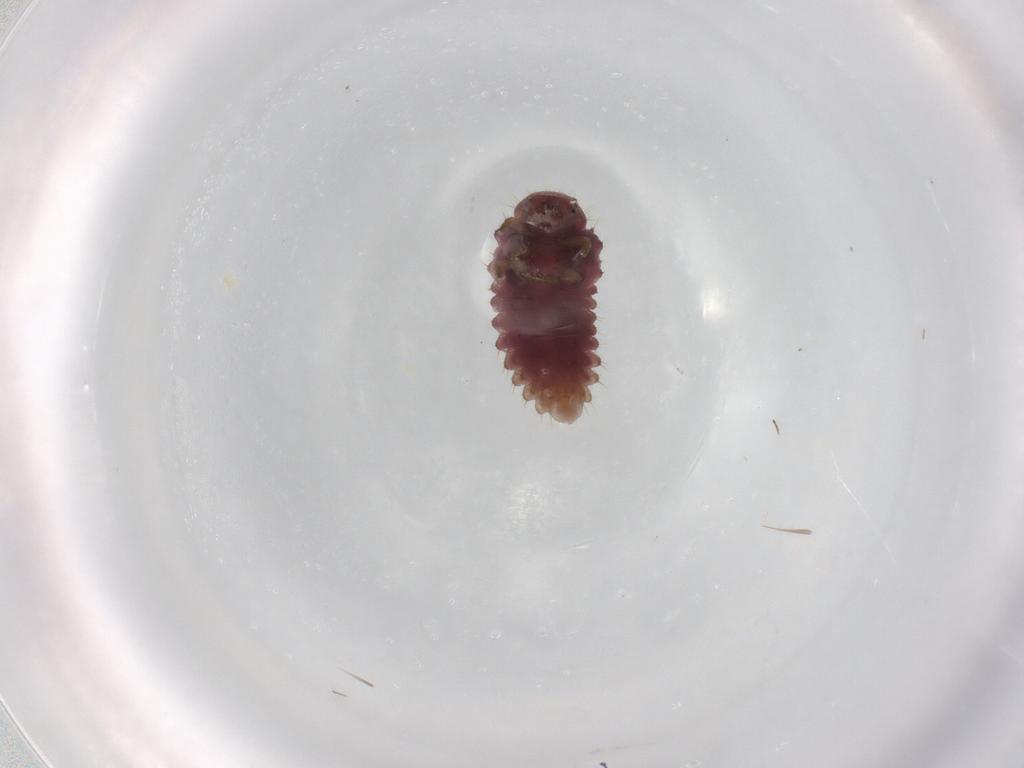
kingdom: Animalia
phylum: Arthropoda
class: Insecta
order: Coleoptera
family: Coccinellidae
